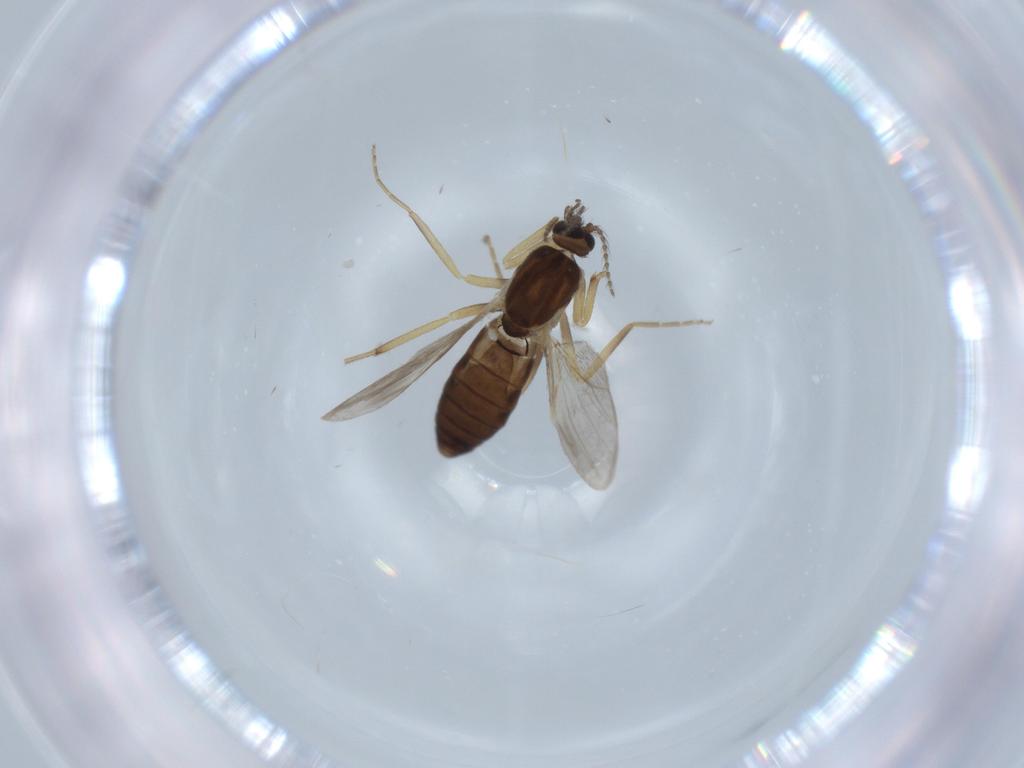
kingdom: Animalia
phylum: Arthropoda
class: Insecta
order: Diptera
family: Ceratopogonidae
